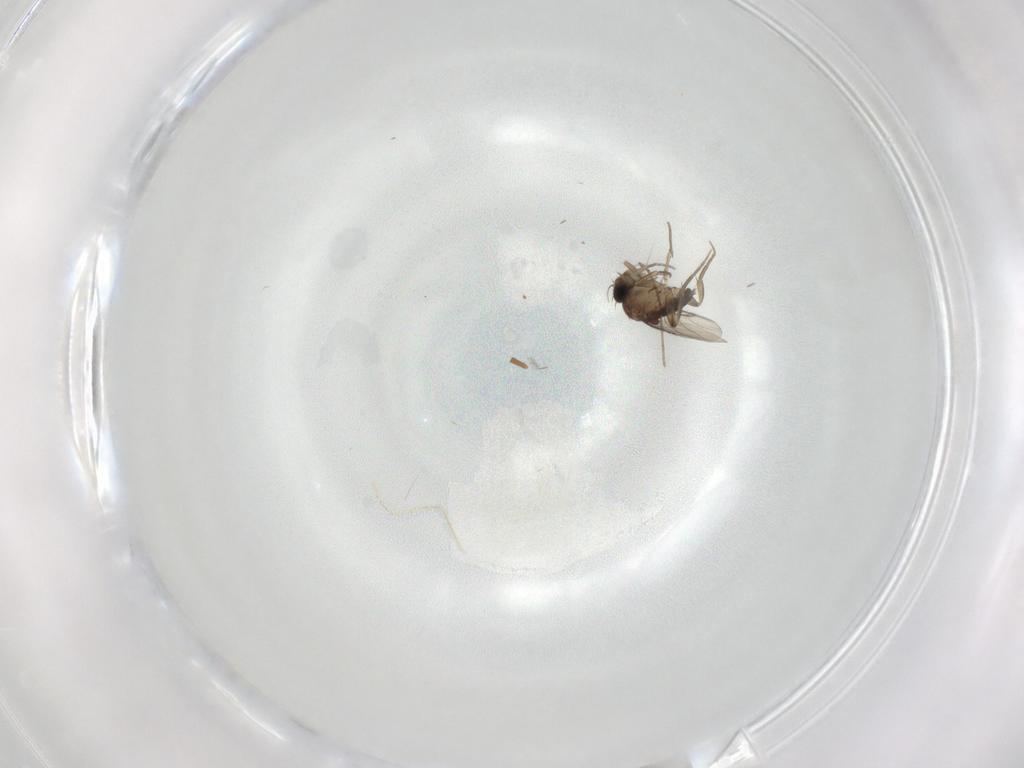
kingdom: Animalia
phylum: Arthropoda
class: Insecta
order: Diptera
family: Phoridae
